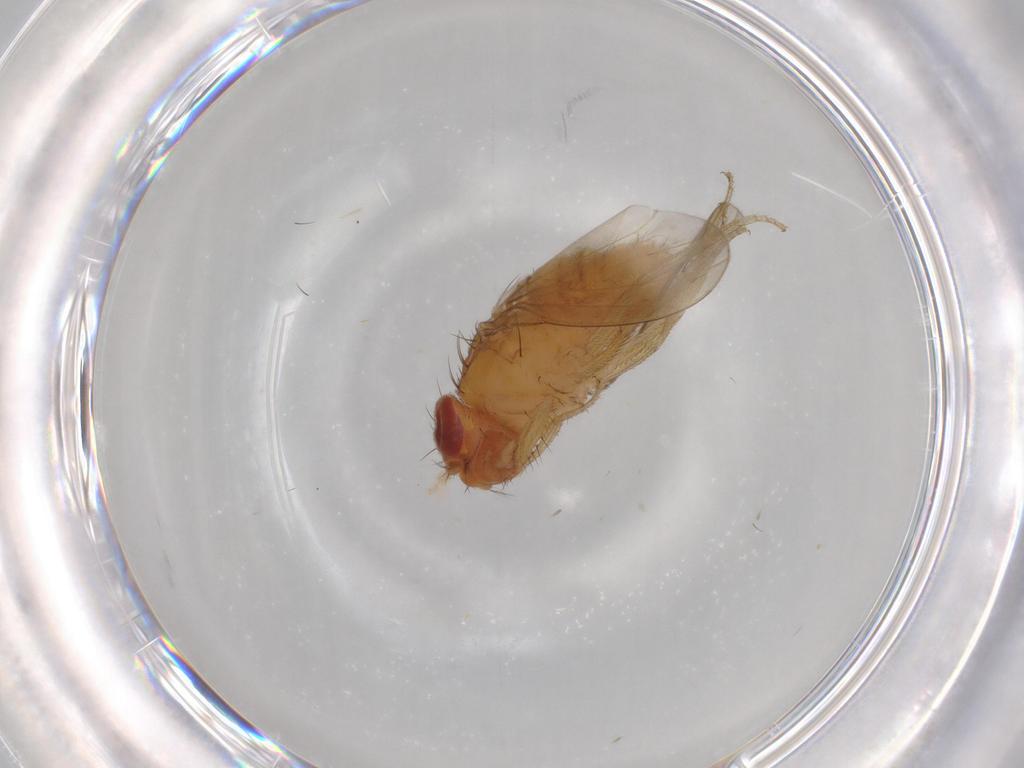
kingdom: Animalia
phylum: Arthropoda
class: Insecta
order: Diptera
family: Drosophilidae
